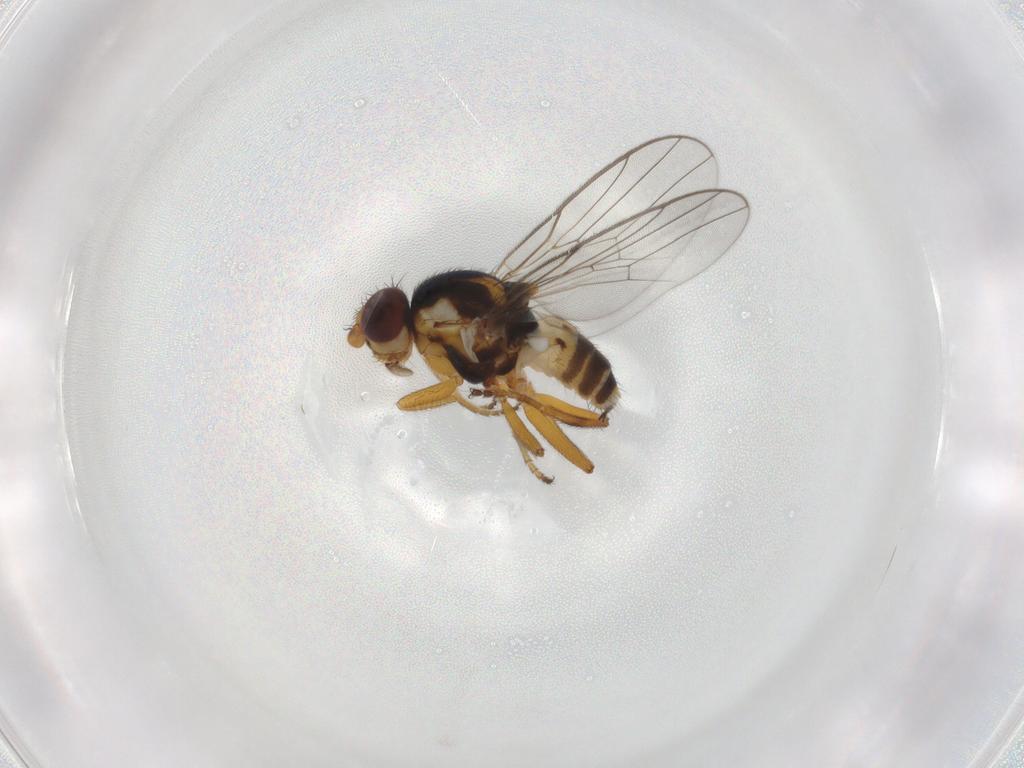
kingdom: Animalia
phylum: Arthropoda
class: Insecta
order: Diptera
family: Chloropidae
